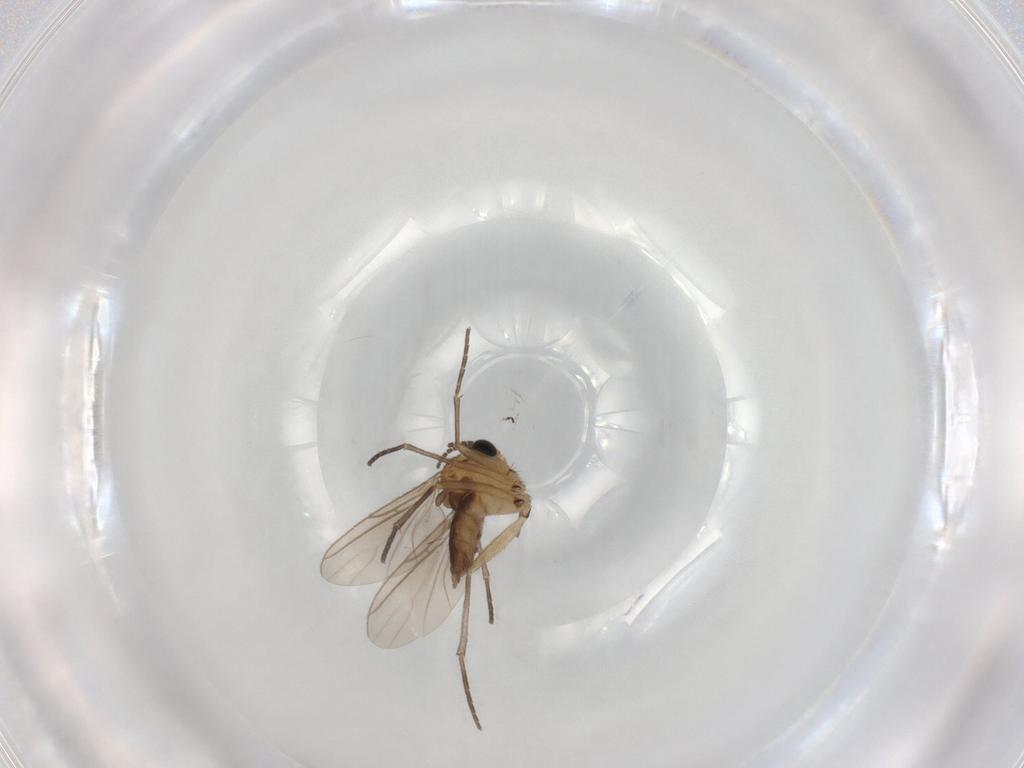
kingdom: Animalia
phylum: Arthropoda
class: Insecta
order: Diptera
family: Sciaridae
